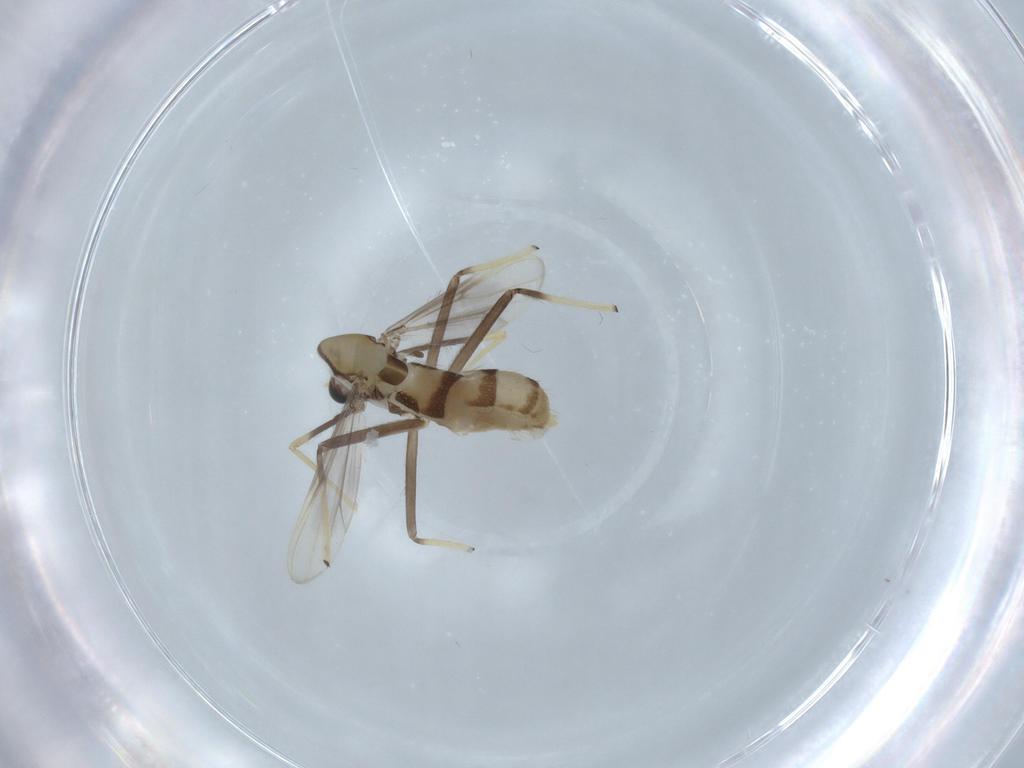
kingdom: Animalia
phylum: Arthropoda
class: Insecta
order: Diptera
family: Chironomidae
